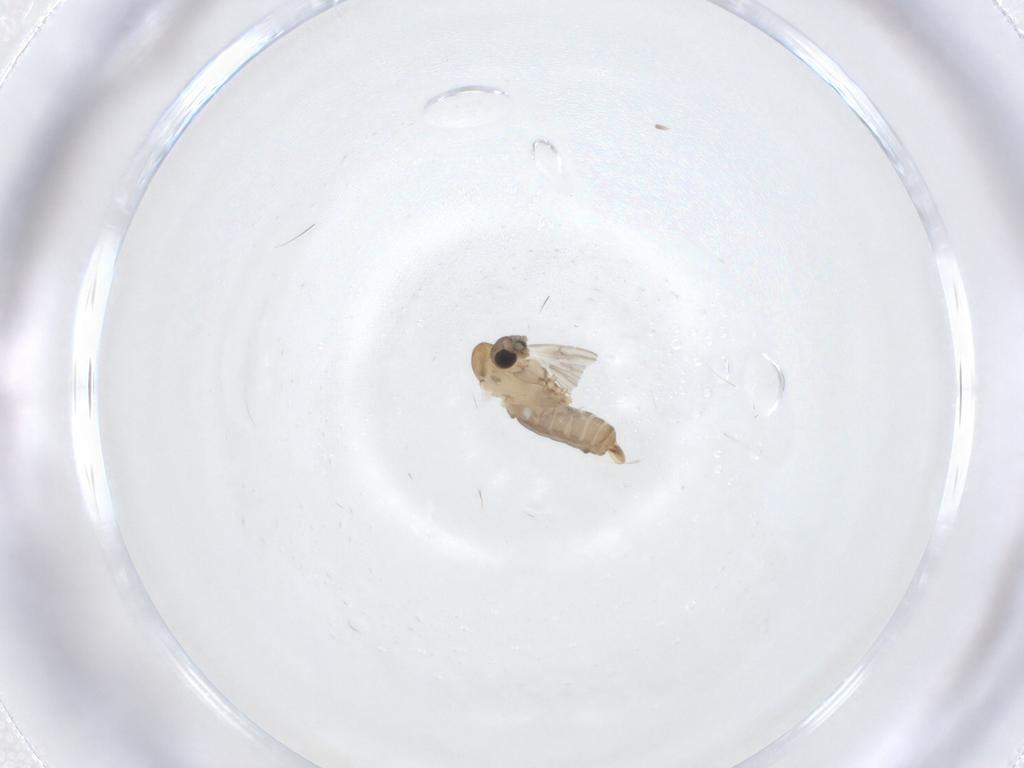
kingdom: Animalia
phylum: Arthropoda
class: Insecta
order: Diptera
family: Psychodidae
